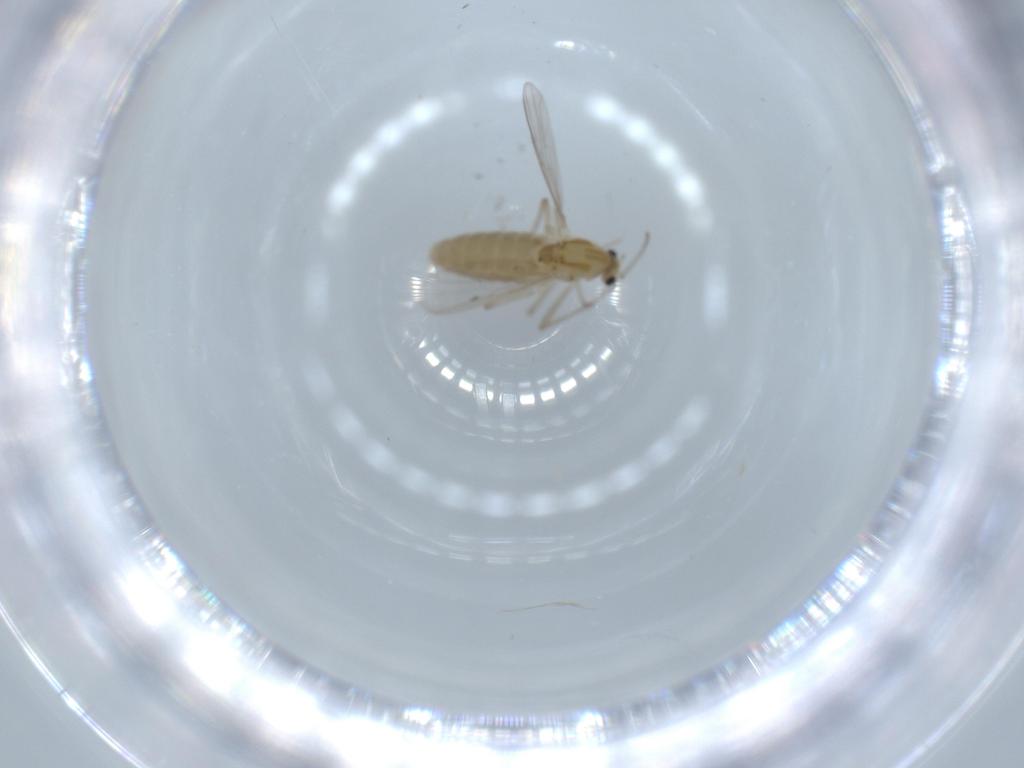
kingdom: Animalia
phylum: Arthropoda
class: Insecta
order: Diptera
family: Chironomidae
